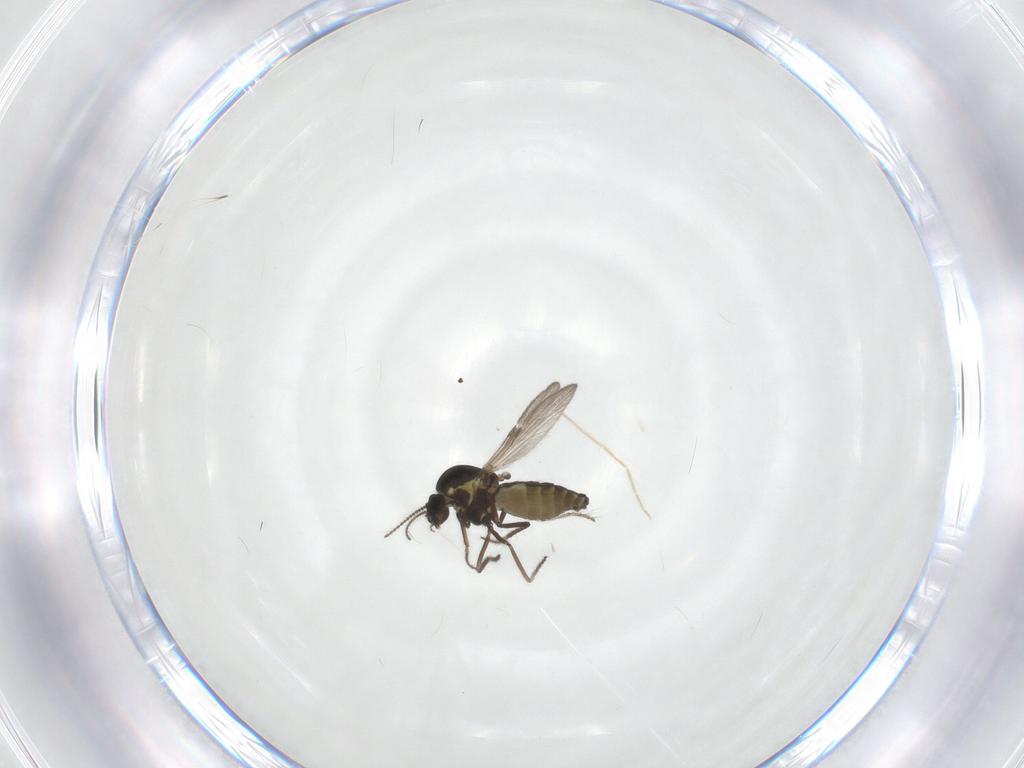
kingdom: Animalia
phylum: Arthropoda
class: Insecta
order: Diptera
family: Ceratopogonidae
